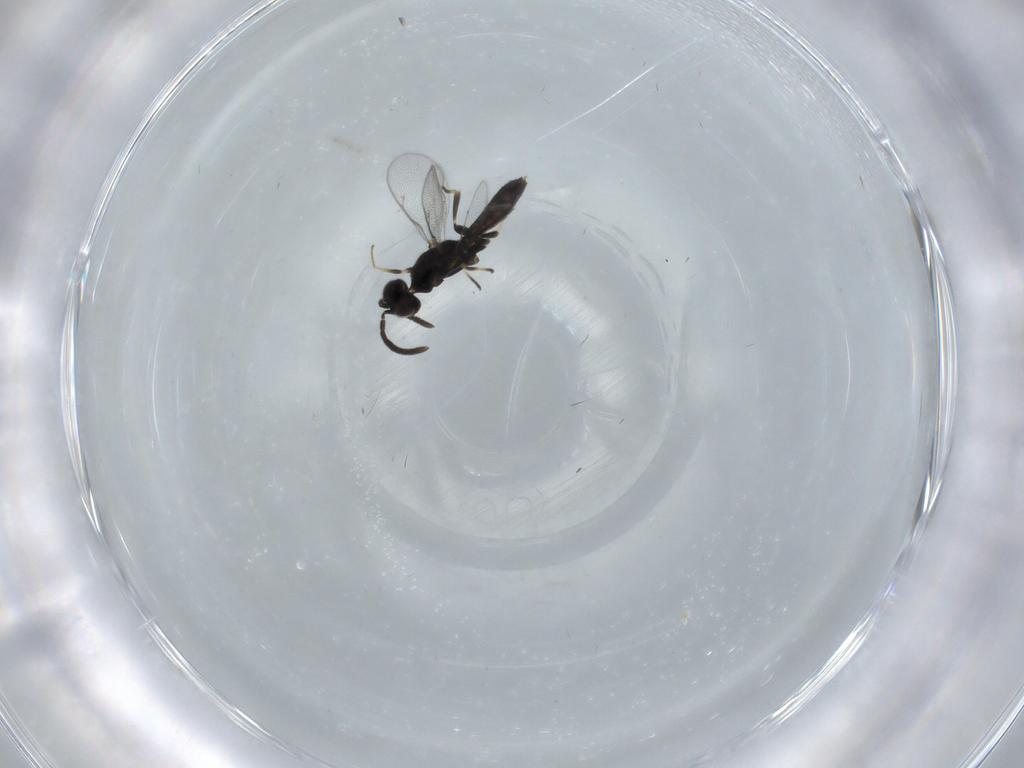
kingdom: Animalia
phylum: Arthropoda
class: Insecta
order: Hymenoptera
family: Eupelmidae
